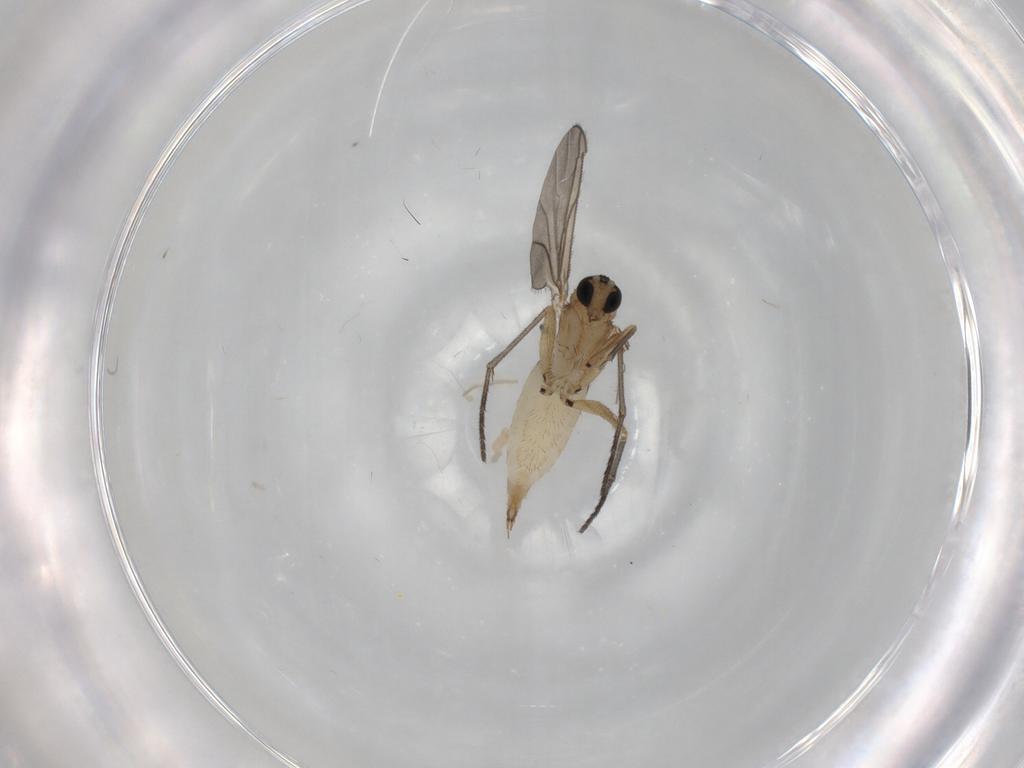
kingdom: Animalia
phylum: Arthropoda
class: Insecta
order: Diptera
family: Sciaridae
